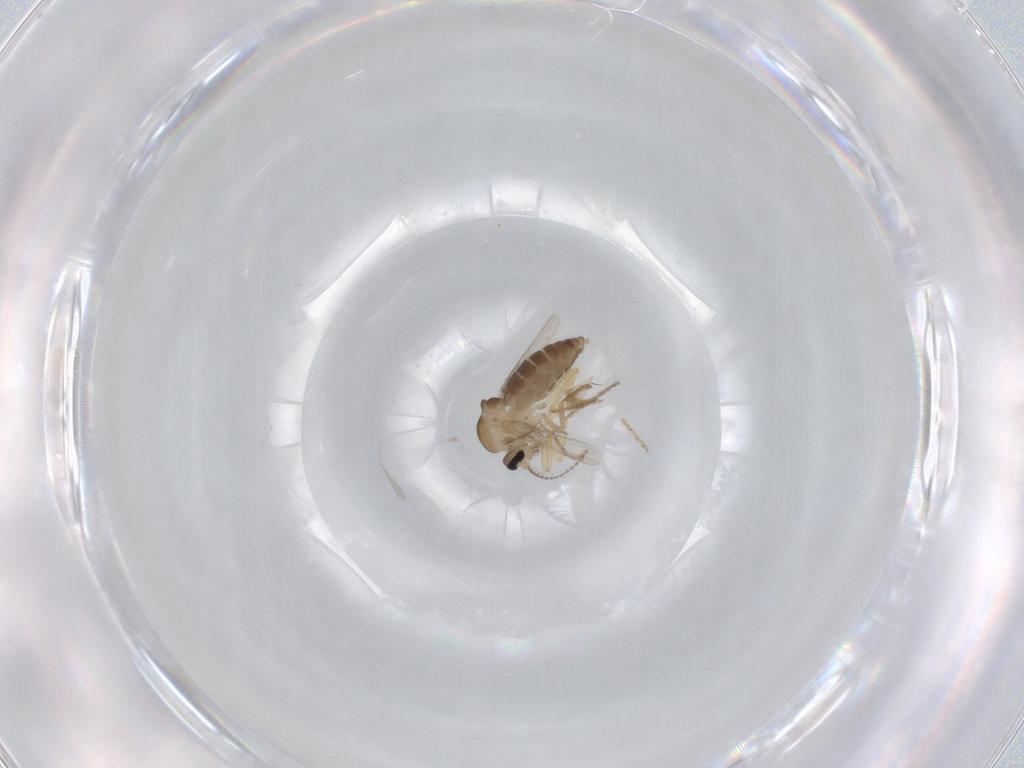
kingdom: Animalia
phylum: Arthropoda
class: Insecta
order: Diptera
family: Ceratopogonidae
